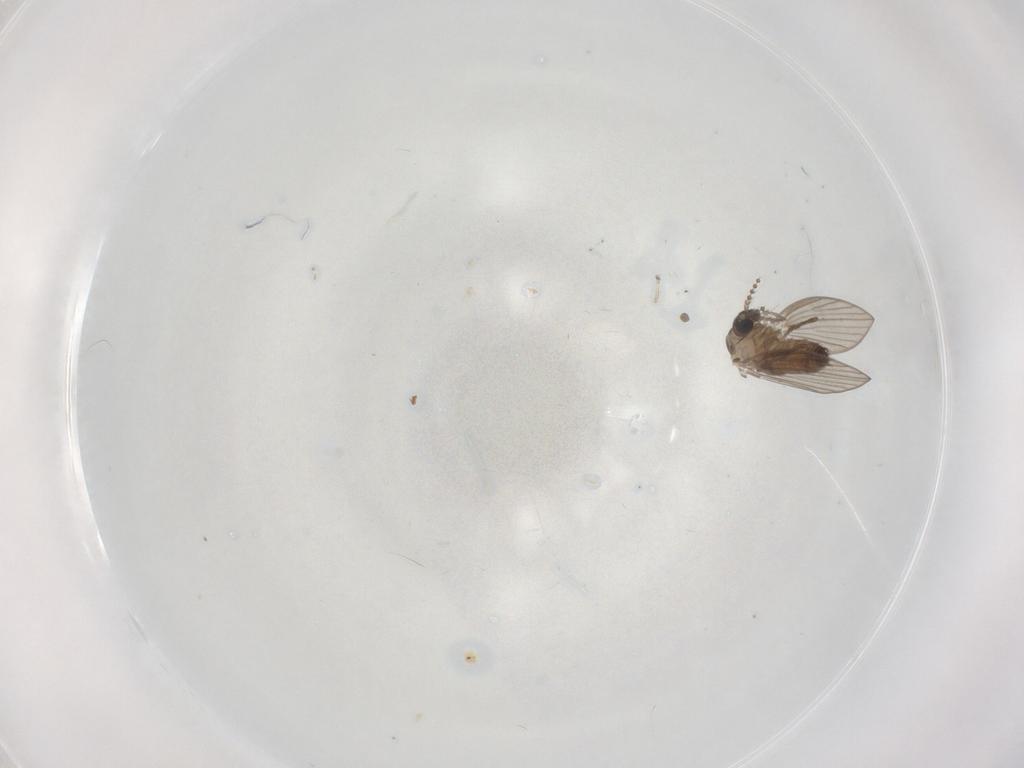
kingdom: Animalia
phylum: Arthropoda
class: Insecta
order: Diptera
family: Psychodidae
